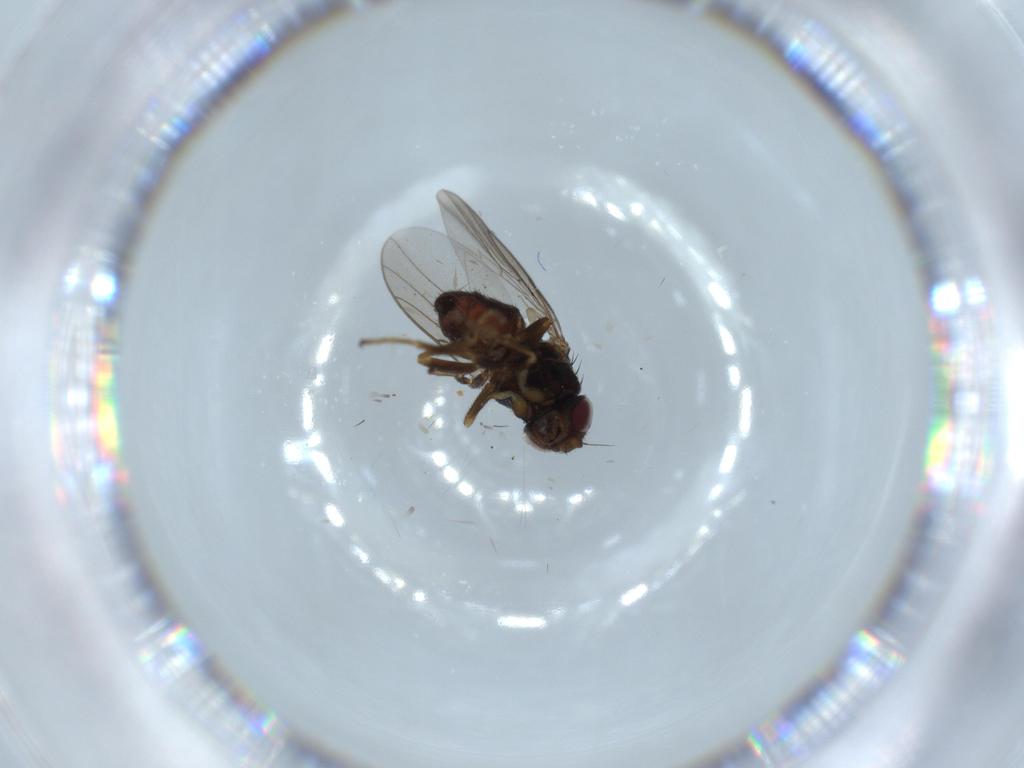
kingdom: Animalia
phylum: Arthropoda
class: Insecta
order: Diptera
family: Chloropidae
